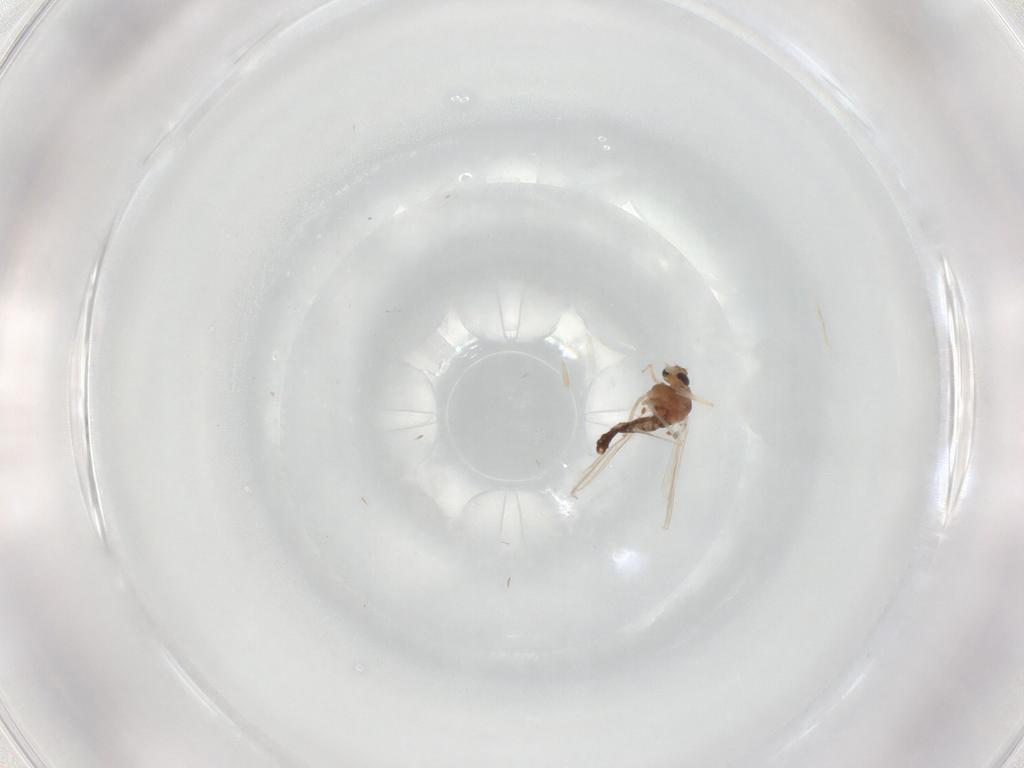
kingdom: Animalia
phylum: Arthropoda
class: Insecta
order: Diptera
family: Chironomidae
